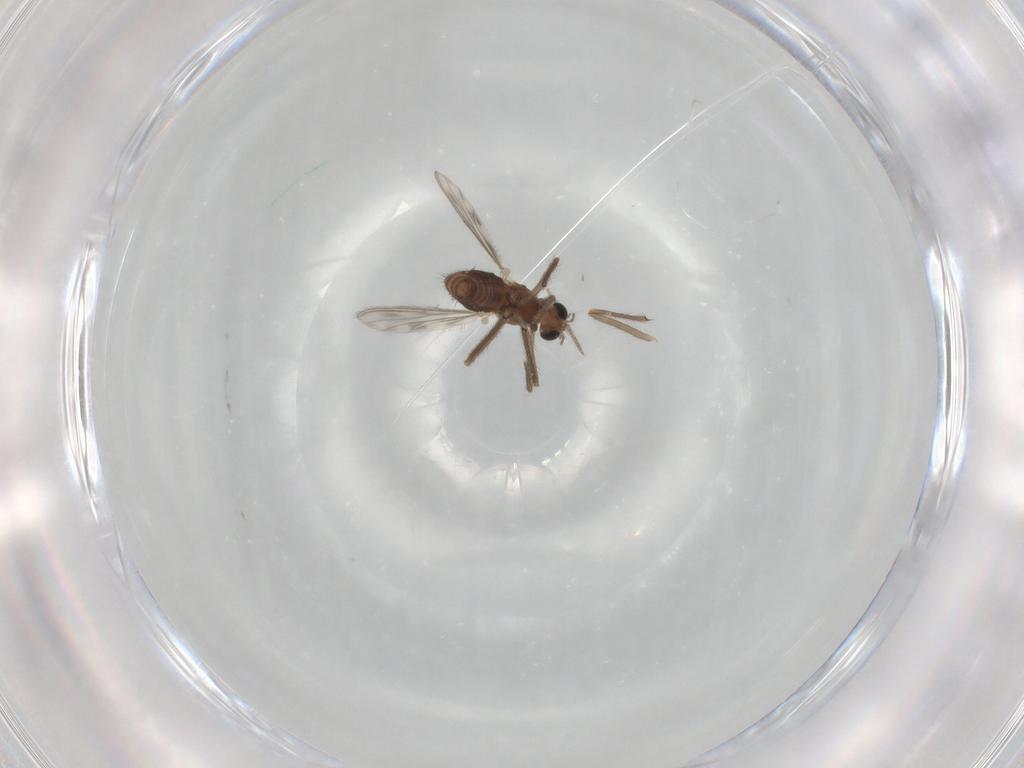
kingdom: Animalia
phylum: Arthropoda
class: Insecta
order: Diptera
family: Chironomidae
